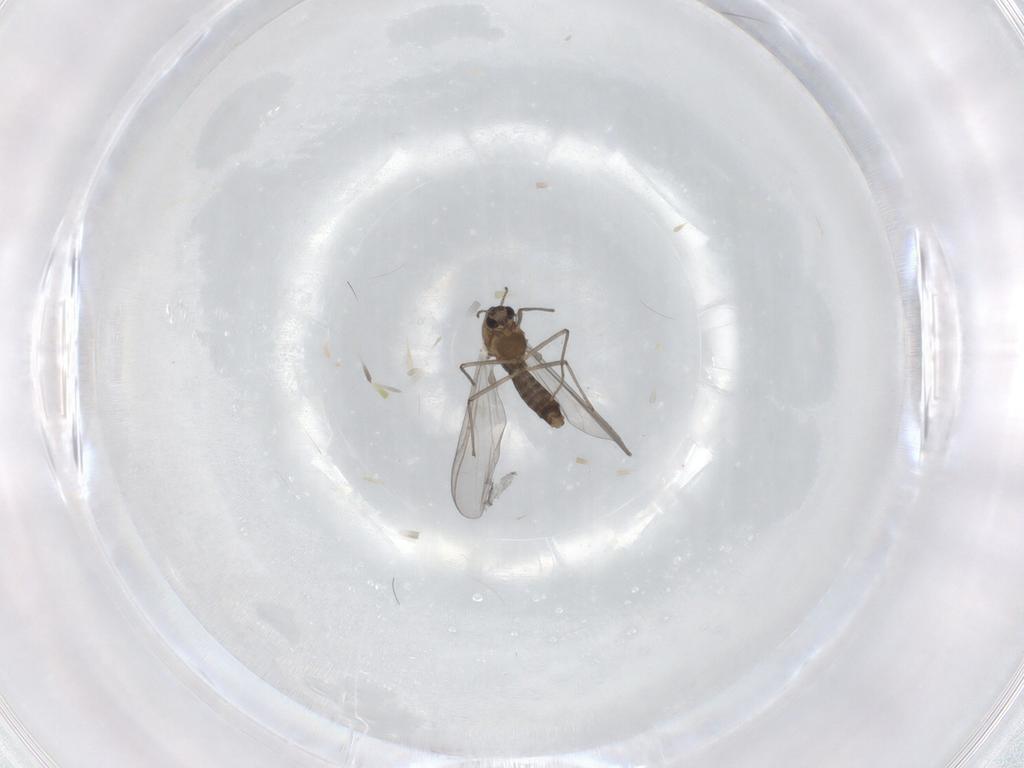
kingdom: Animalia
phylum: Arthropoda
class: Insecta
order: Diptera
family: Chironomidae
